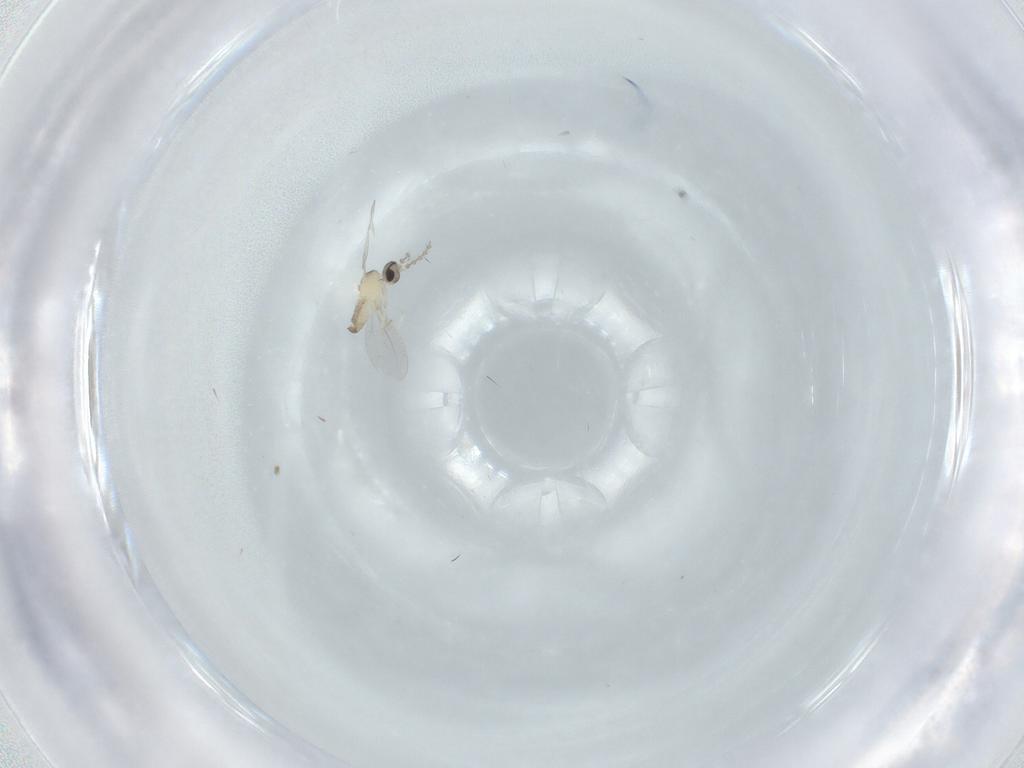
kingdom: Animalia
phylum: Arthropoda
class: Insecta
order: Diptera
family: Cecidomyiidae
